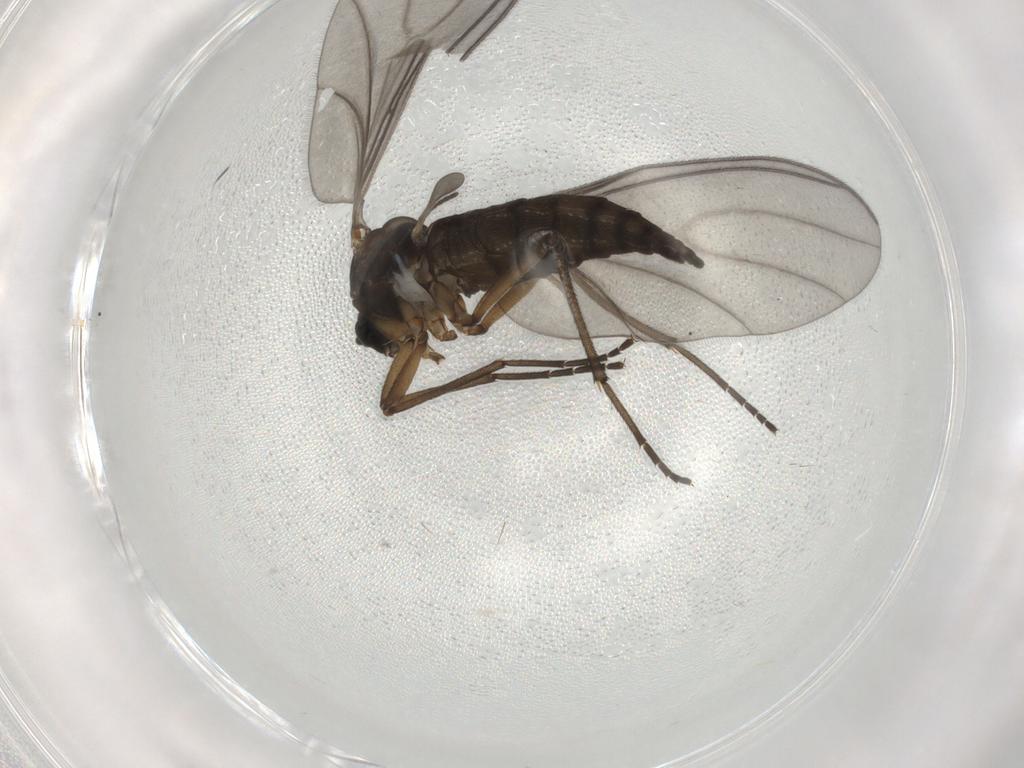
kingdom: Animalia
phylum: Arthropoda
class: Insecta
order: Diptera
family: Sciaridae
